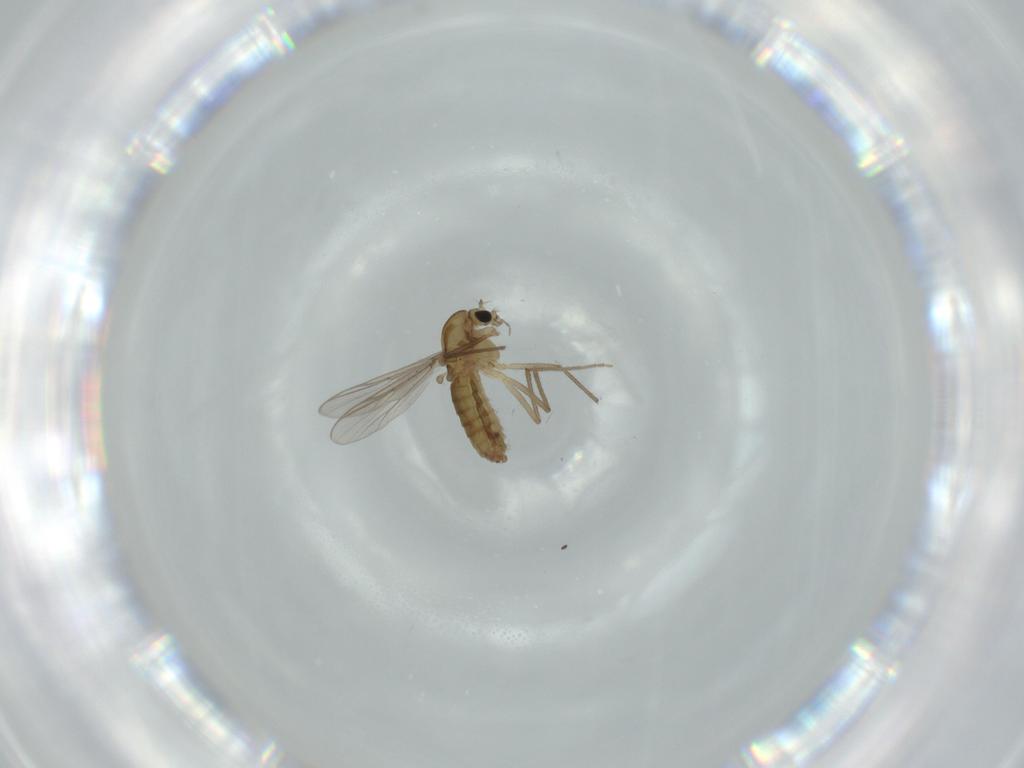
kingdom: Animalia
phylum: Arthropoda
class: Insecta
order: Diptera
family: Chironomidae
